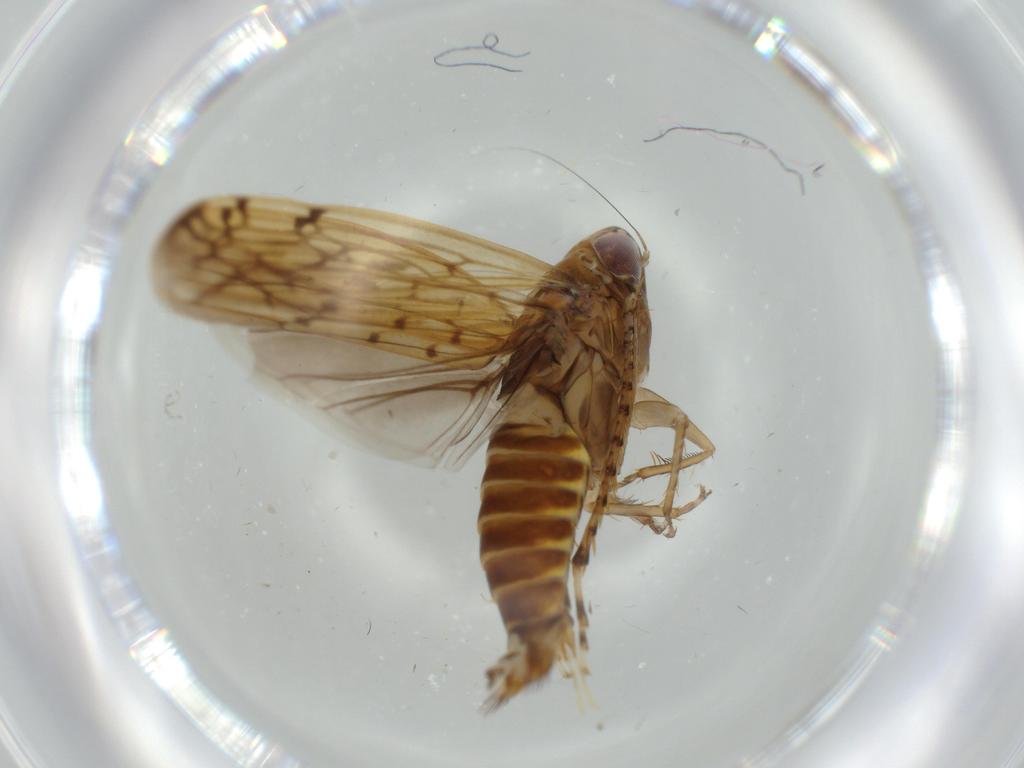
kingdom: Animalia
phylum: Arthropoda
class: Insecta
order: Hemiptera
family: Cicadellidae
